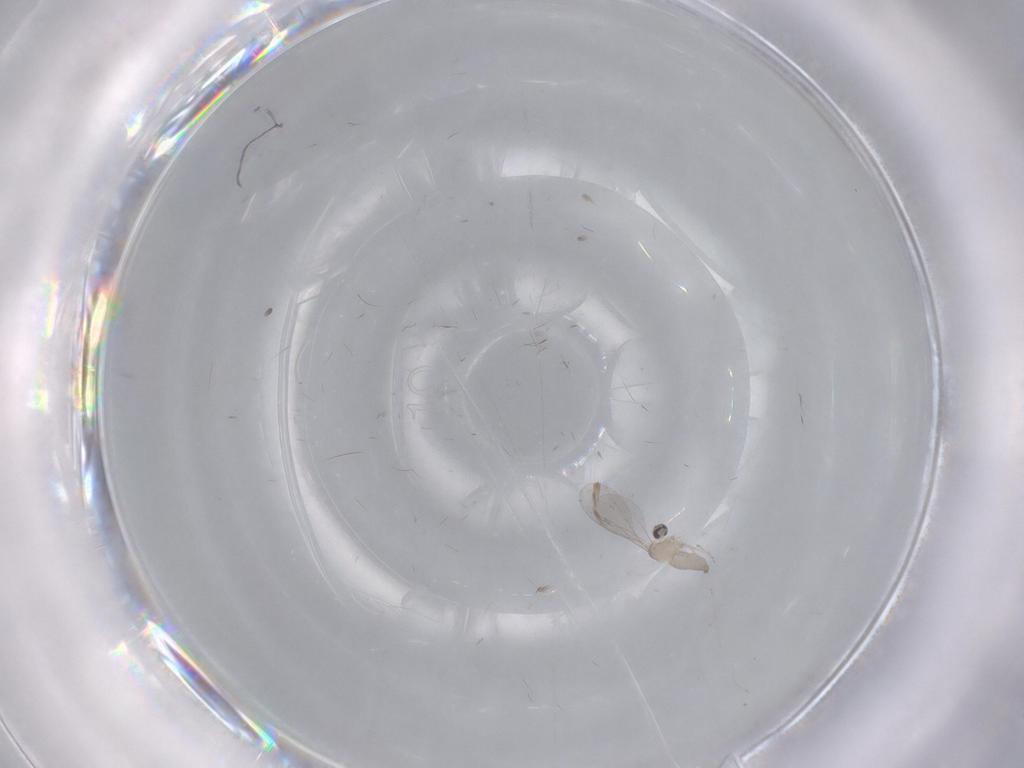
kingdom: Animalia
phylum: Arthropoda
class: Insecta
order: Diptera
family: Cecidomyiidae
